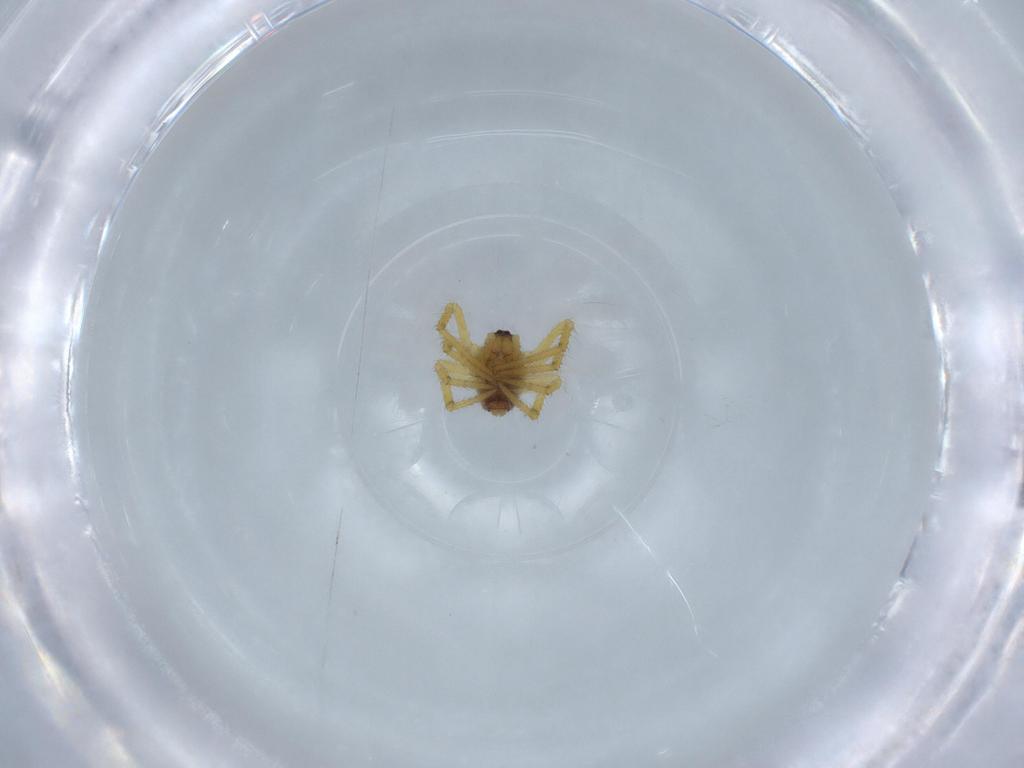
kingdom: Animalia
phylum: Arthropoda
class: Arachnida
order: Araneae
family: Theridiidae
